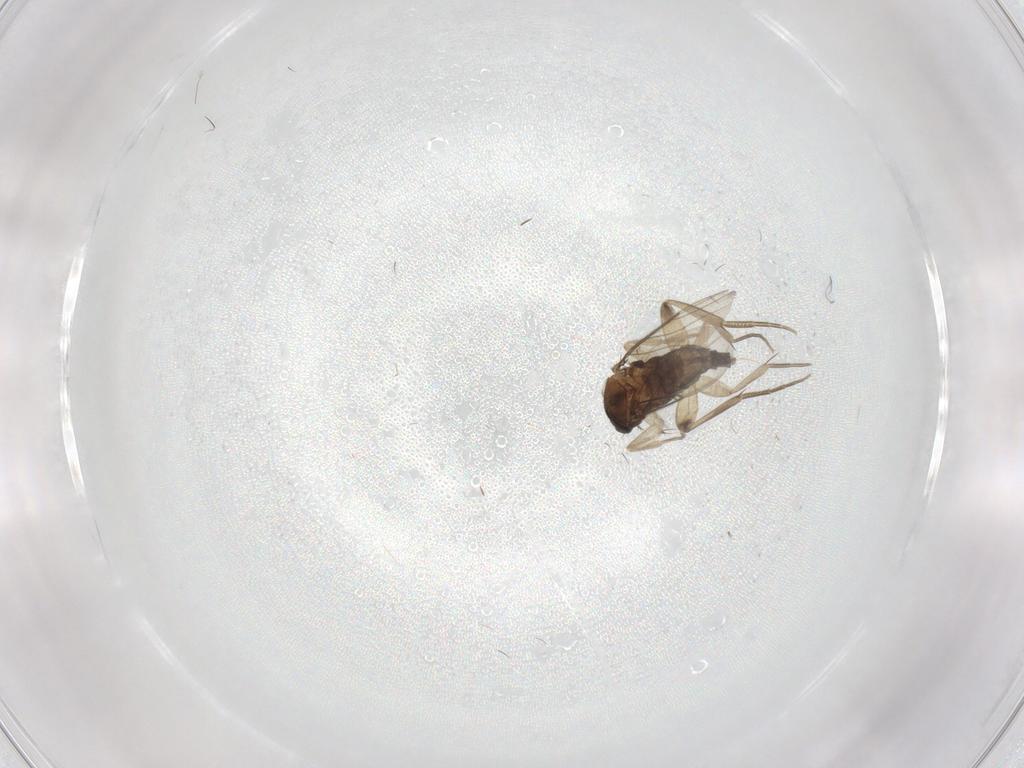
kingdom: Animalia
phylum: Arthropoda
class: Insecta
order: Diptera
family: Phoridae
